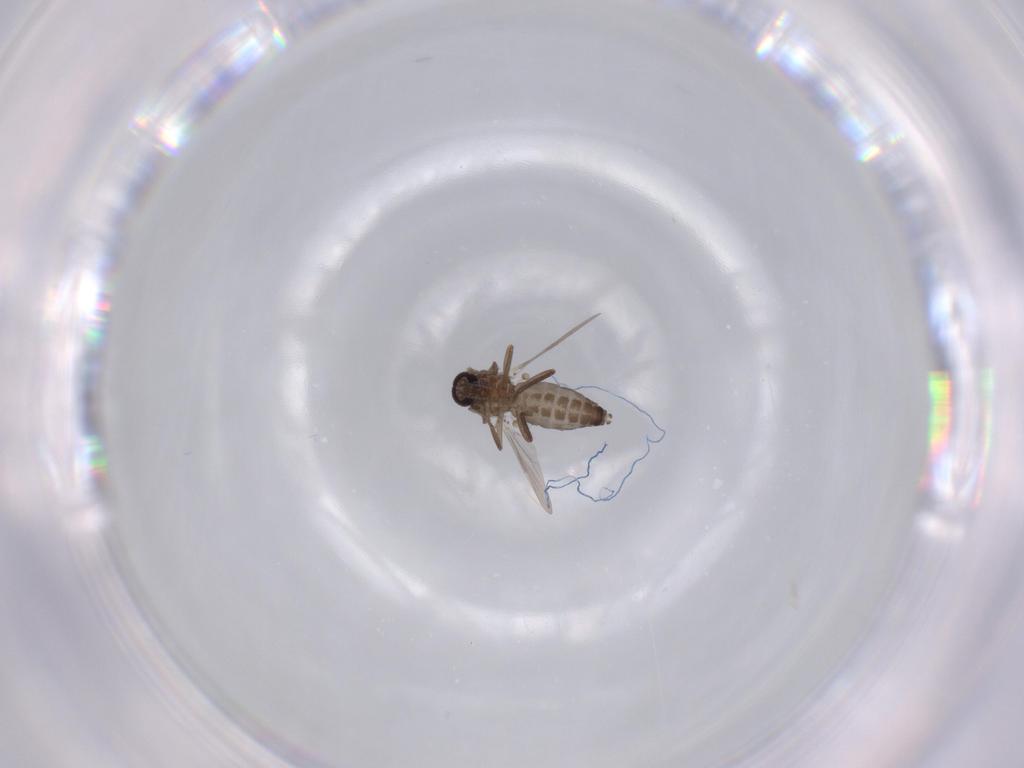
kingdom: Animalia
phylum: Arthropoda
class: Insecta
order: Diptera
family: Ceratopogonidae
